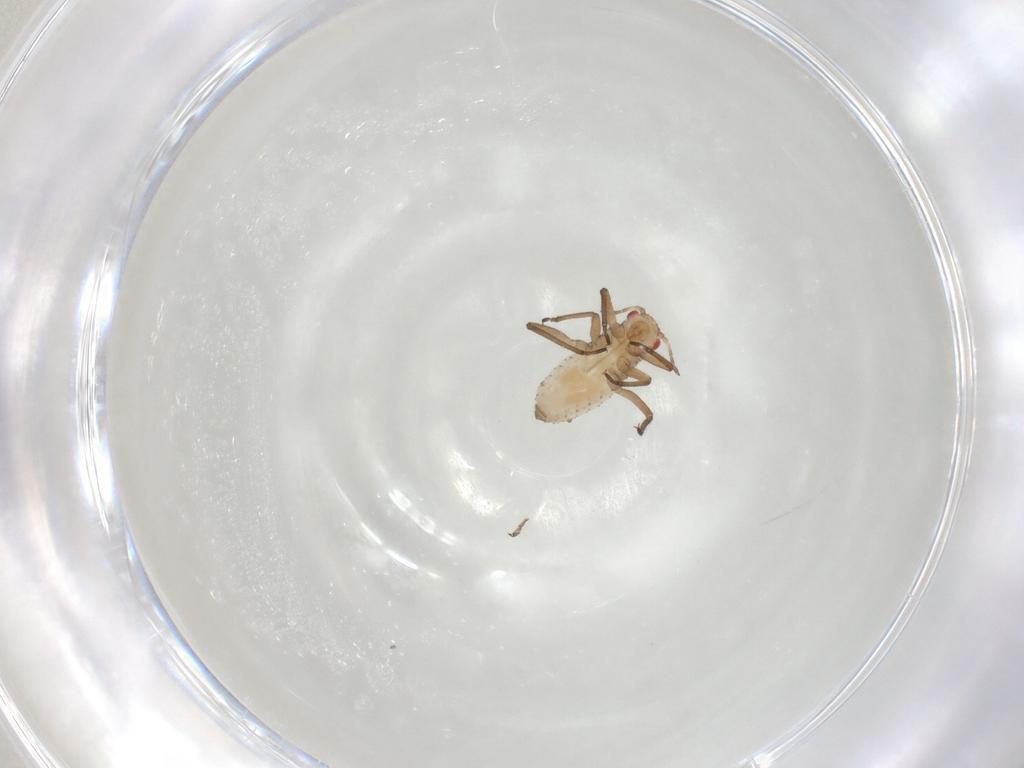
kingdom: Animalia
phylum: Arthropoda
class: Insecta
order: Hemiptera
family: Aphididae
